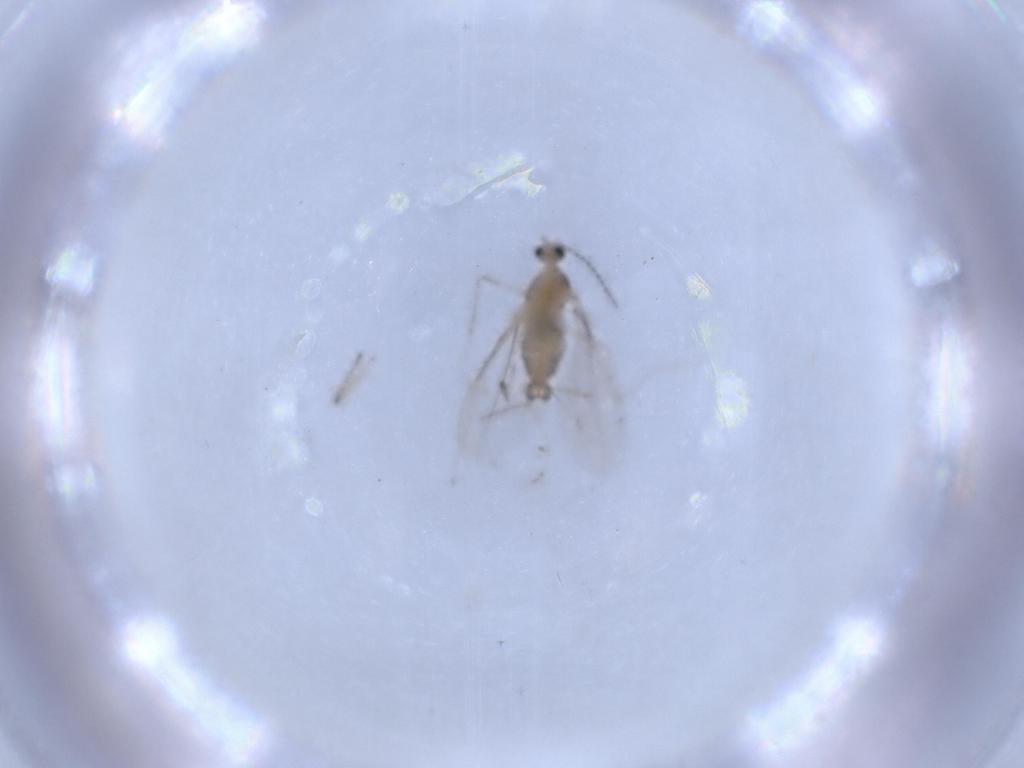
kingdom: Animalia
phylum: Arthropoda
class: Insecta
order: Diptera
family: Cecidomyiidae
